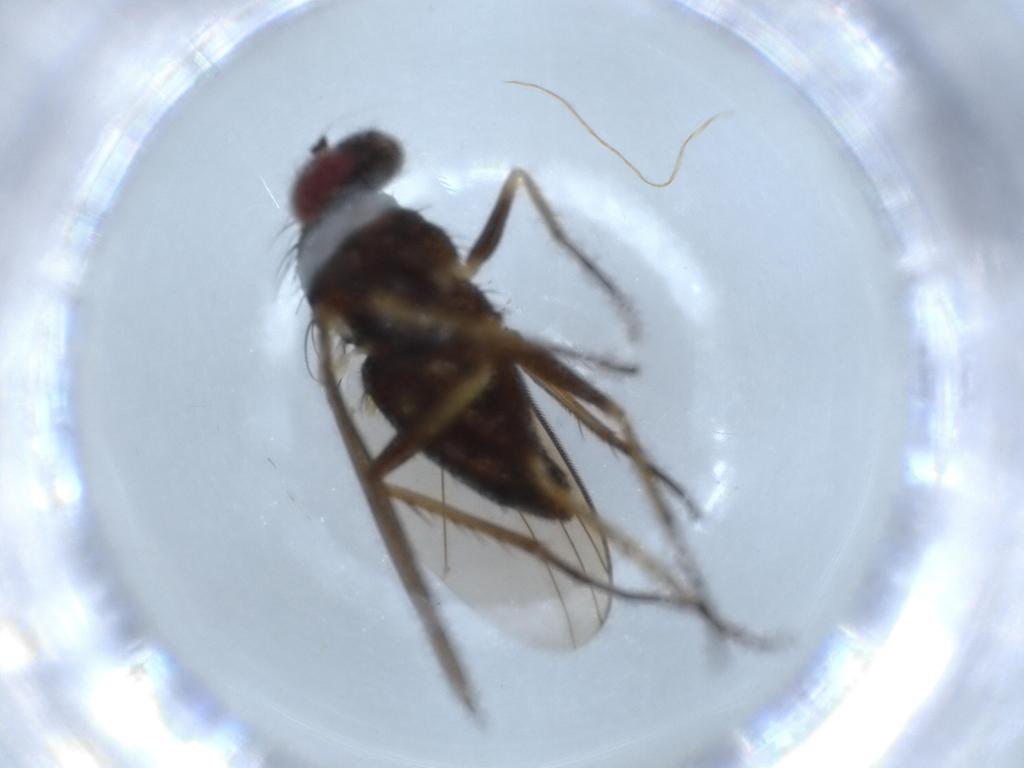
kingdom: Animalia
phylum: Arthropoda
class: Insecta
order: Diptera
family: Dolichopodidae
